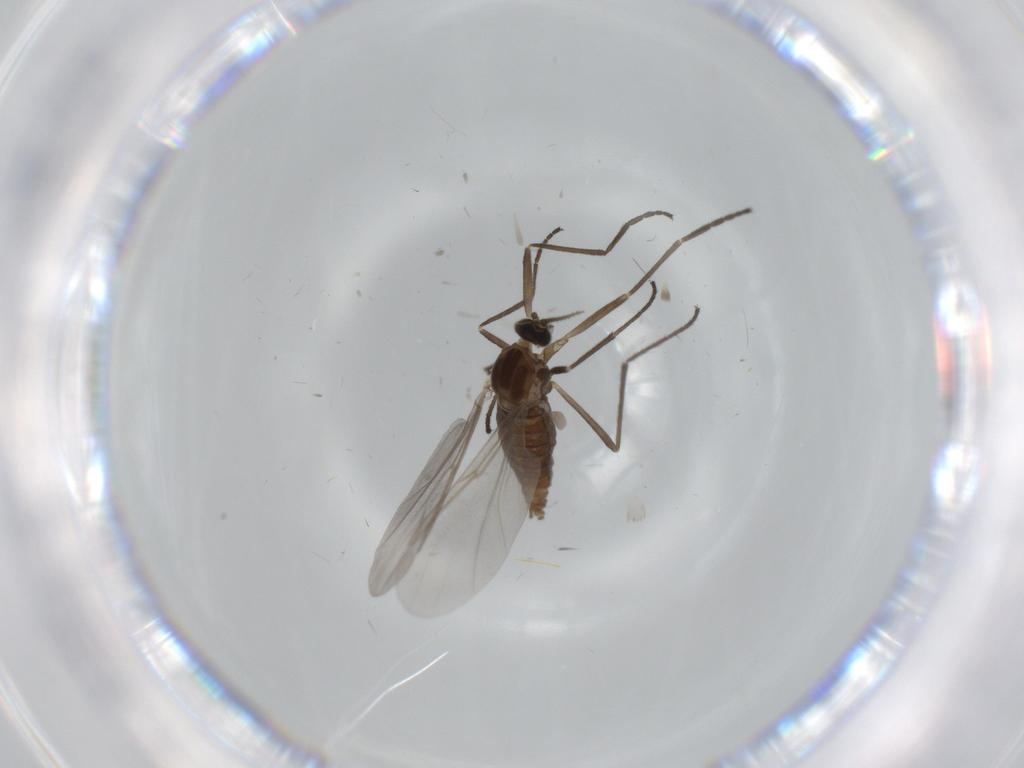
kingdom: Animalia
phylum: Arthropoda
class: Insecta
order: Diptera
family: Cecidomyiidae
